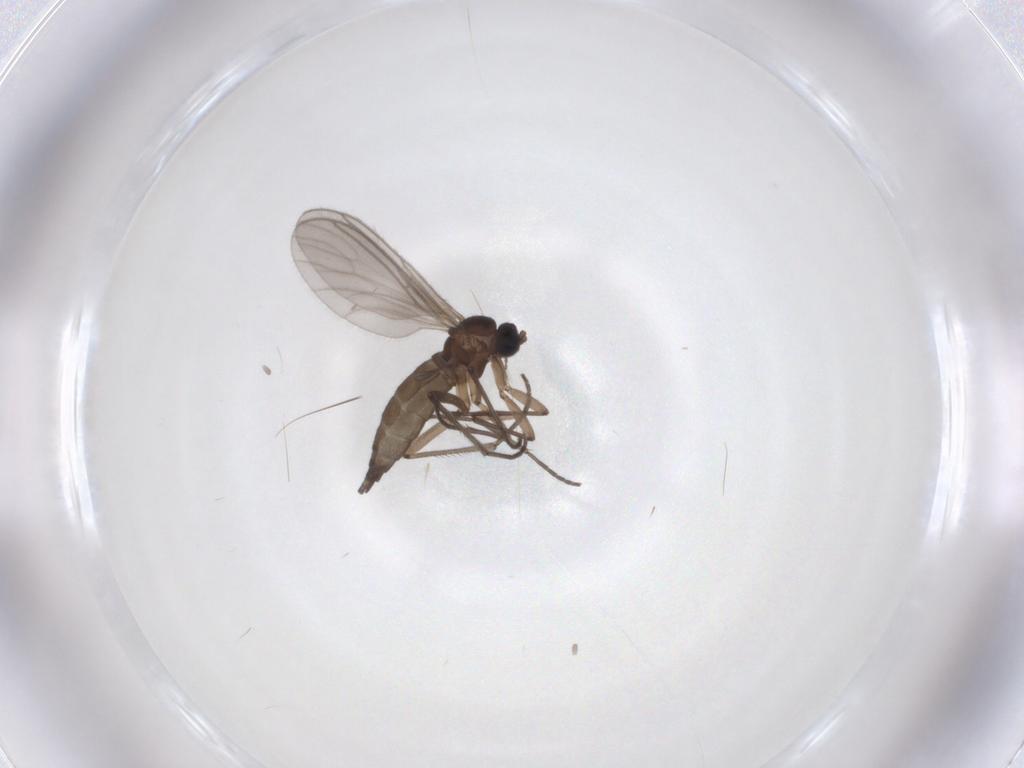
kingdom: Animalia
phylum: Arthropoda
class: Insecta
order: Diptera
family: Sciaridae
